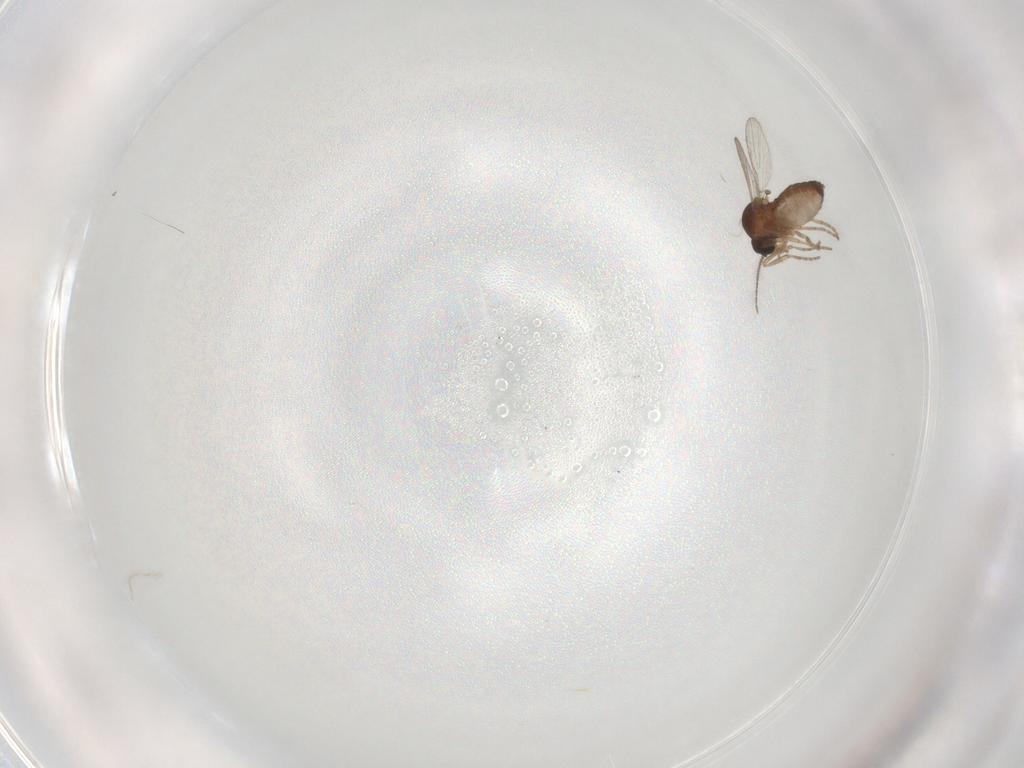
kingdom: Animalia
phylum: Arthropoda
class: Insecta
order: Diptera
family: Ceratopogonidae
